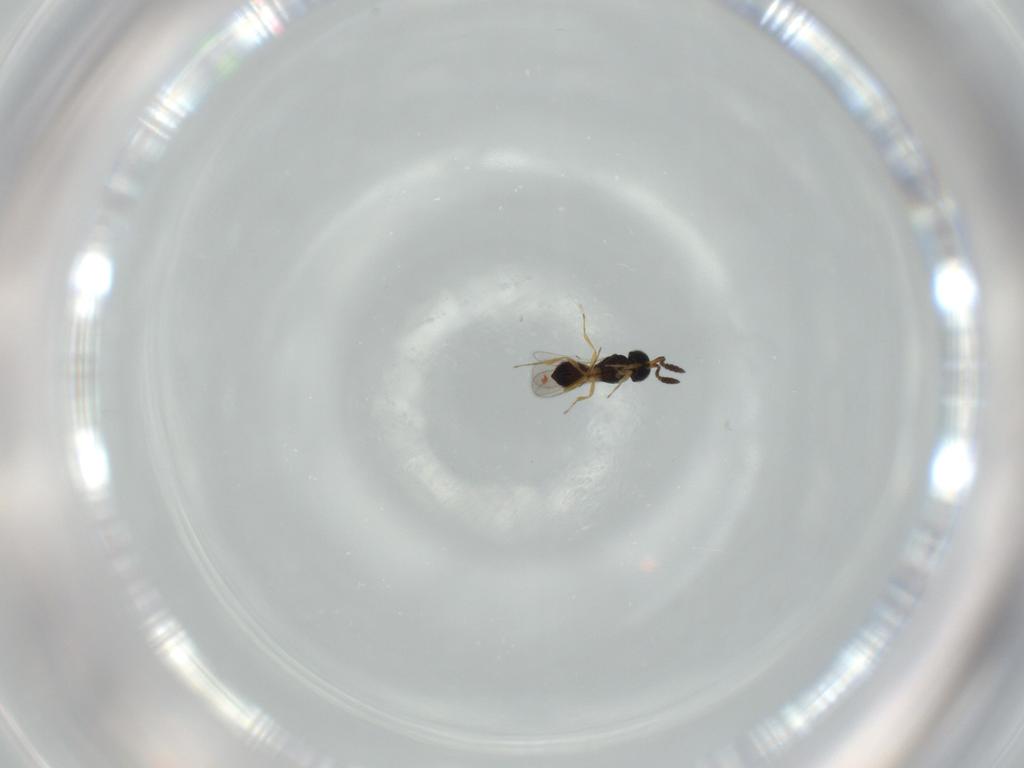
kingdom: Animalia
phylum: Arthropoda
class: Insecta
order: Hymenoptera
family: Scelionidae
